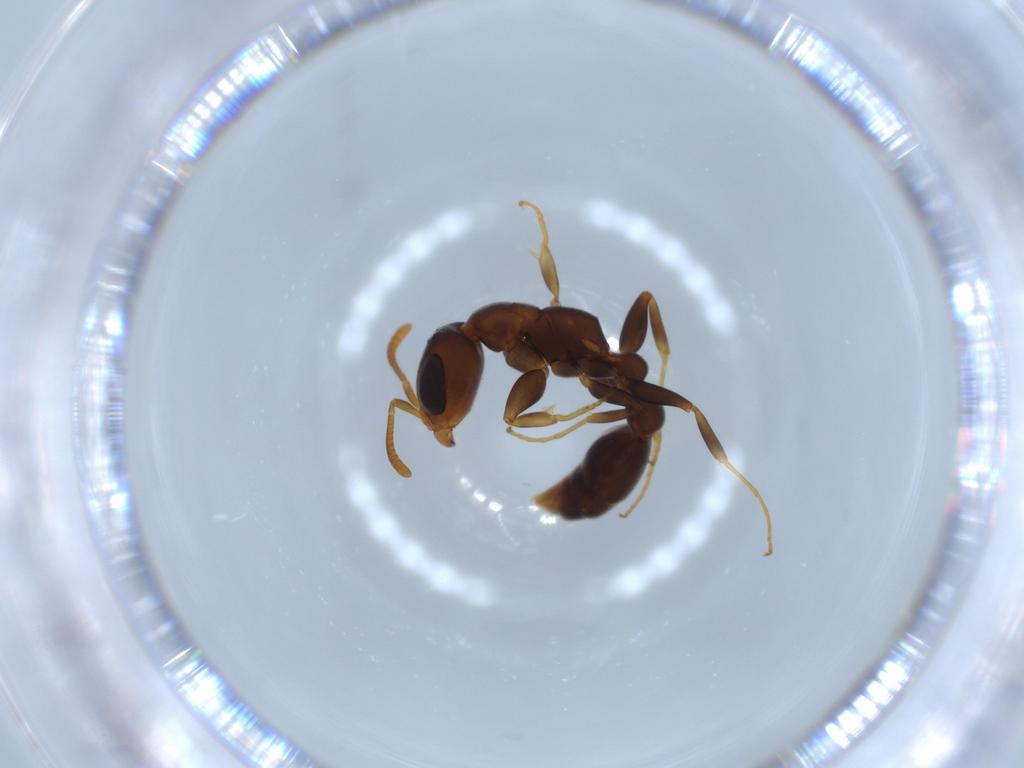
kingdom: Animalia
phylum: Arthropoda
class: Insecta
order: Hymenoptera
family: Formicidae
